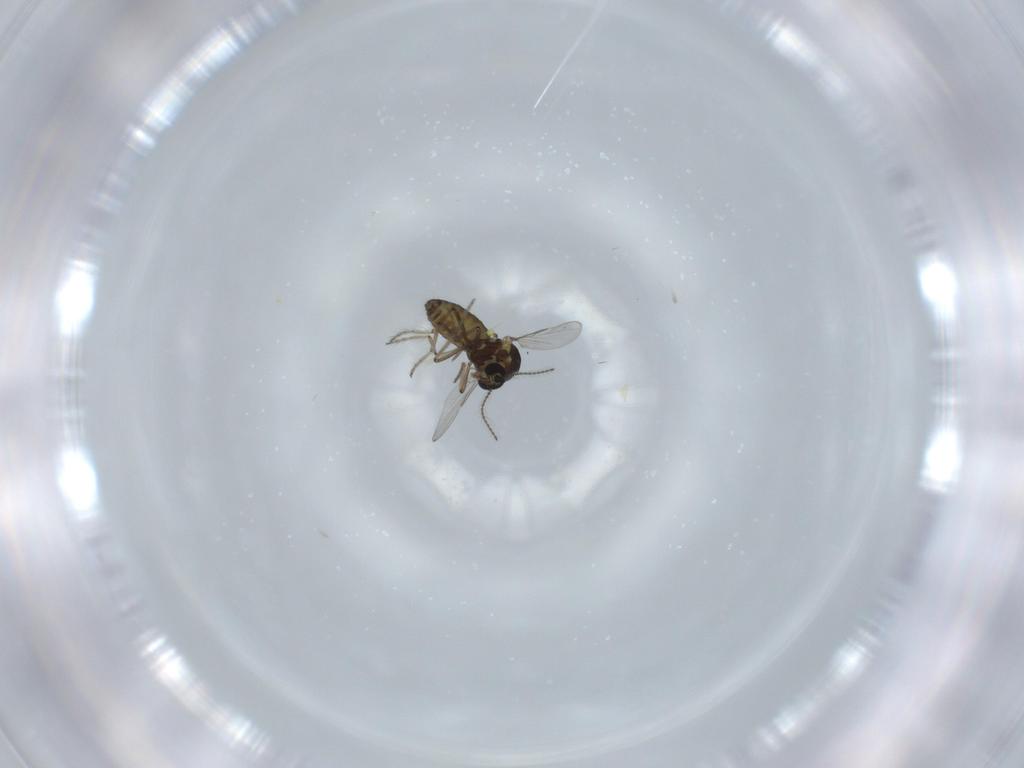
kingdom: Animalia
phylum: Arthropoda
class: Insecta
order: Diptera
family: Ceratopogonidae
